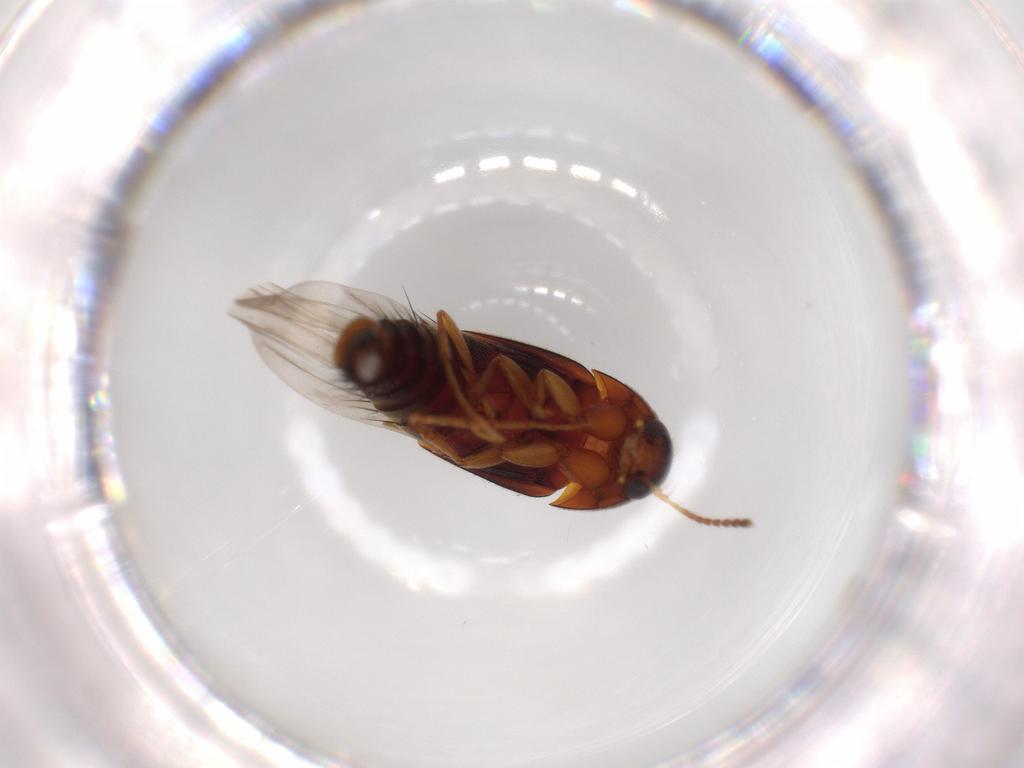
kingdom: Animalia
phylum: Arthropoda
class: Insecta
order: Coleoptera
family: Staphylinidae
